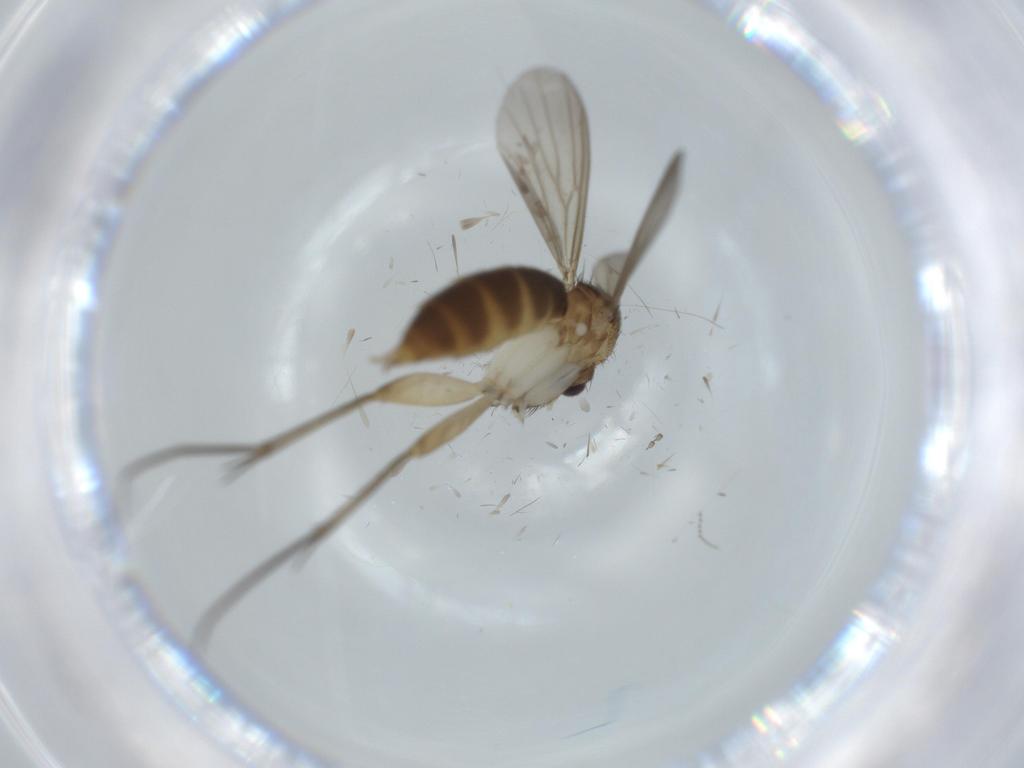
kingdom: Animalia
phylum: Arthropoda
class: Insecta
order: Diptera
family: Mycetophilidae
